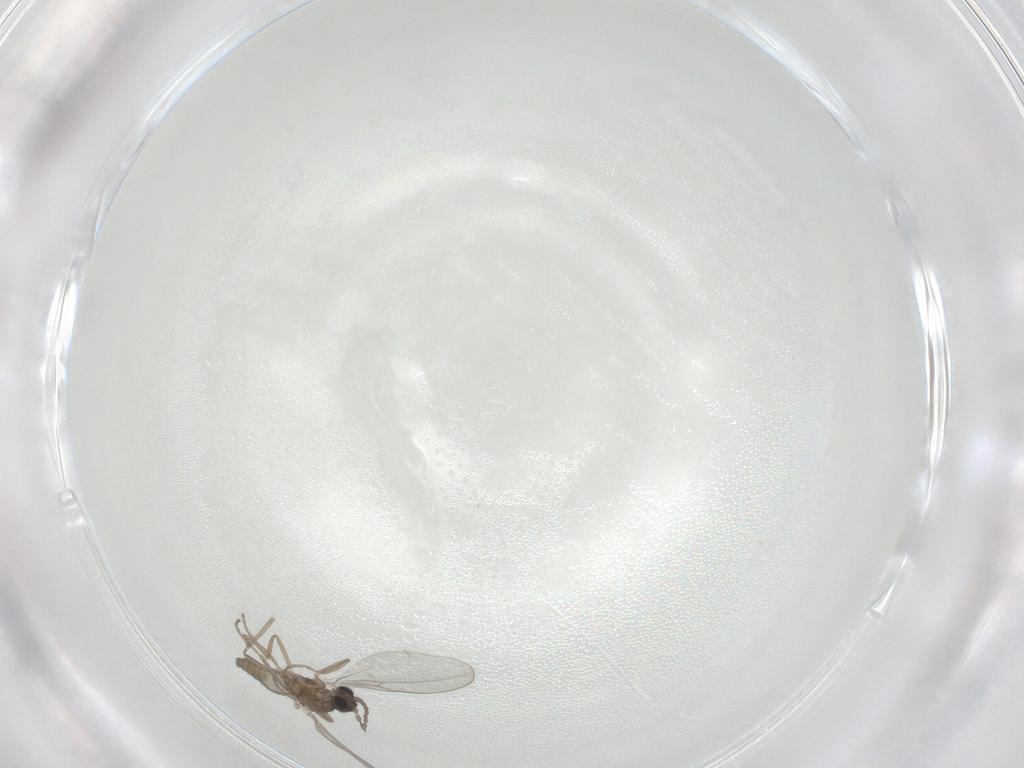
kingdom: Animalia
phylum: Arthropoda
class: Insecta
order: Diptera
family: Cecidomyiidae
